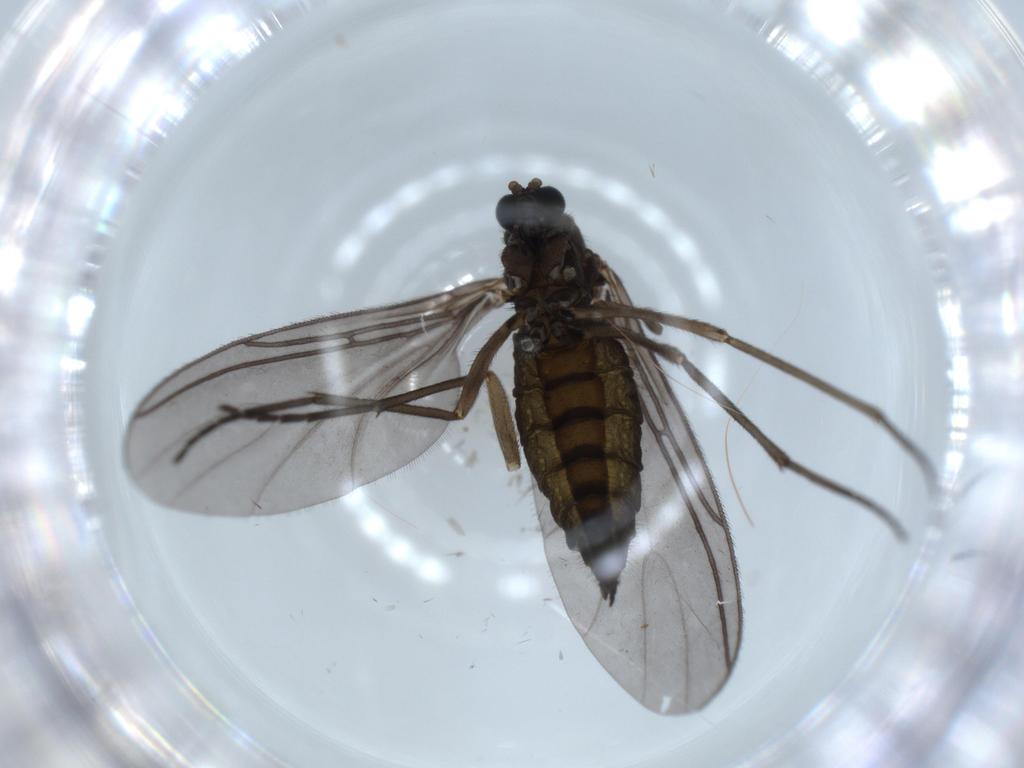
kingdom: Animalia
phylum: Arthropoda
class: Insecta
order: Diptera
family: Sciaridae
